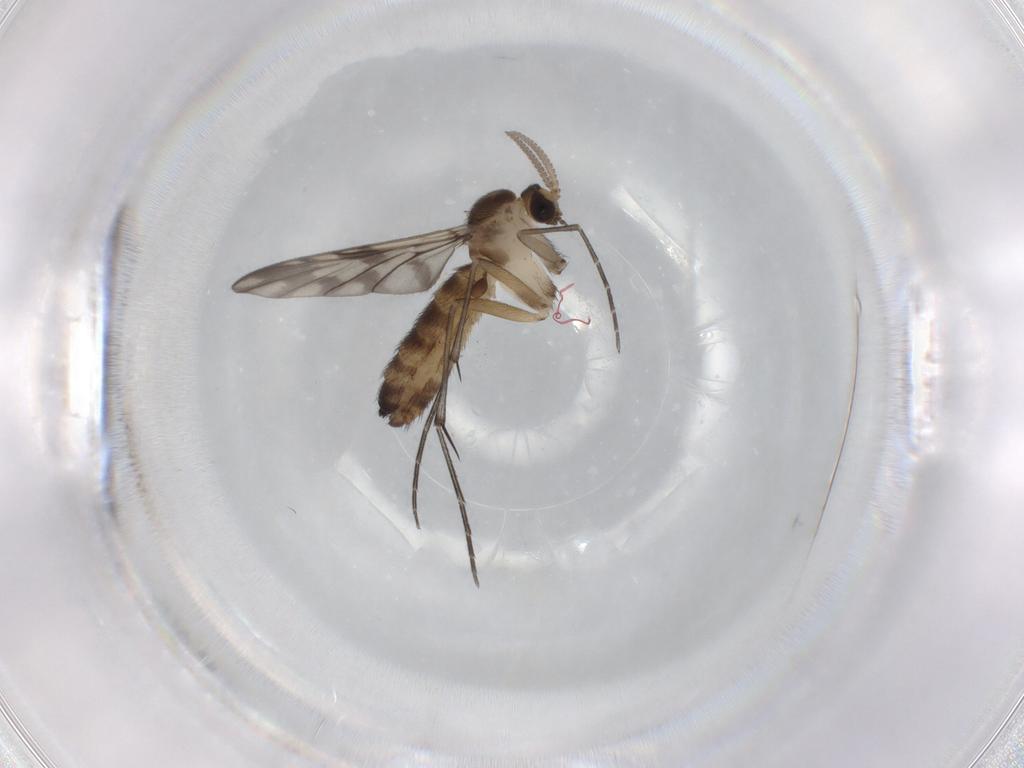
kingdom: Animalia
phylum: Arthropoda
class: Insecta
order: Diptera
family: Keroplatidae
